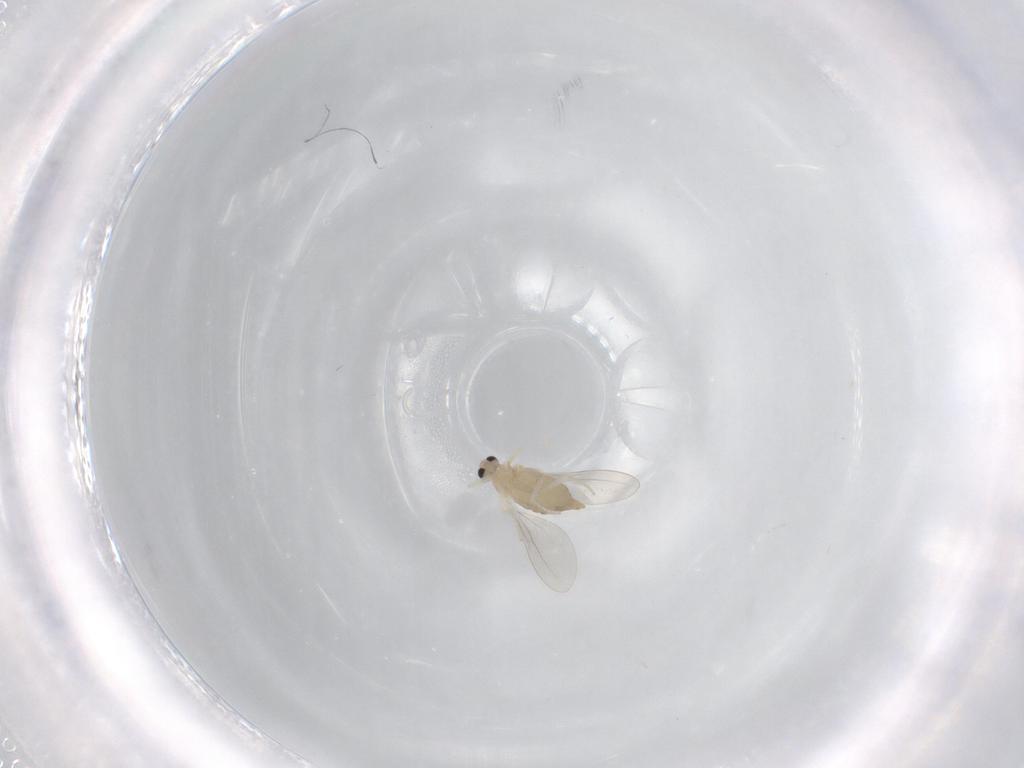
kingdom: Animalia
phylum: Arthropoda
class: Insecta
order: Diptera
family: Cecidomyiidae
